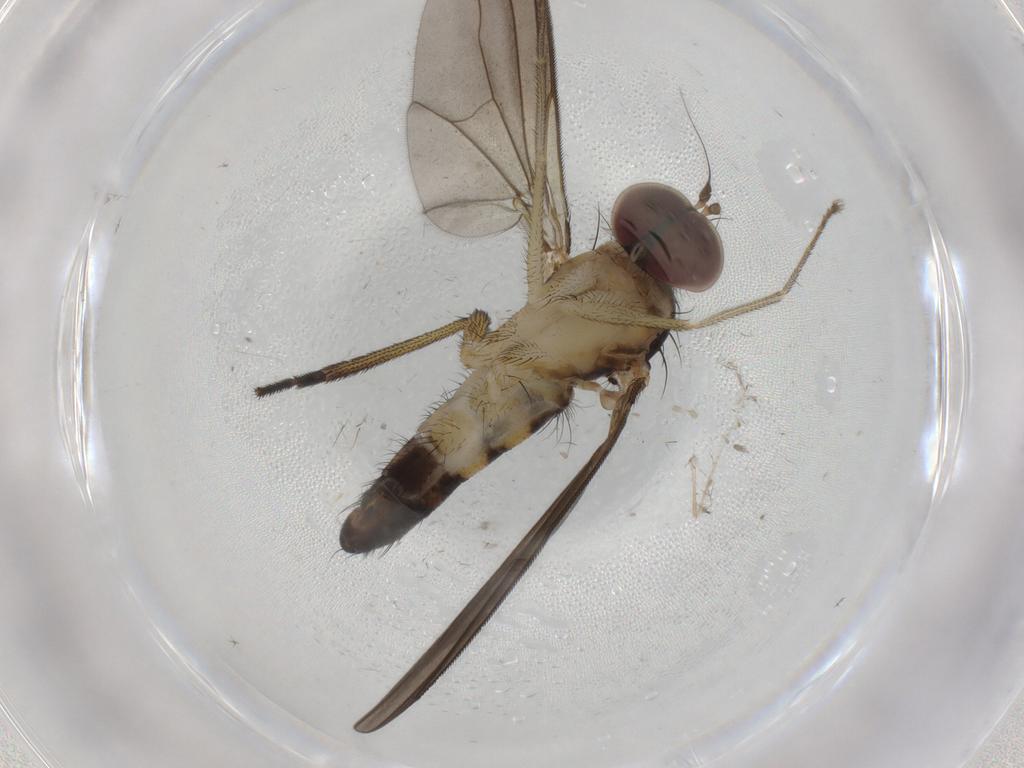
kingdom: Animalia
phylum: Arthropoda
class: Insecta
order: Diptera
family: Dolichopodidae
